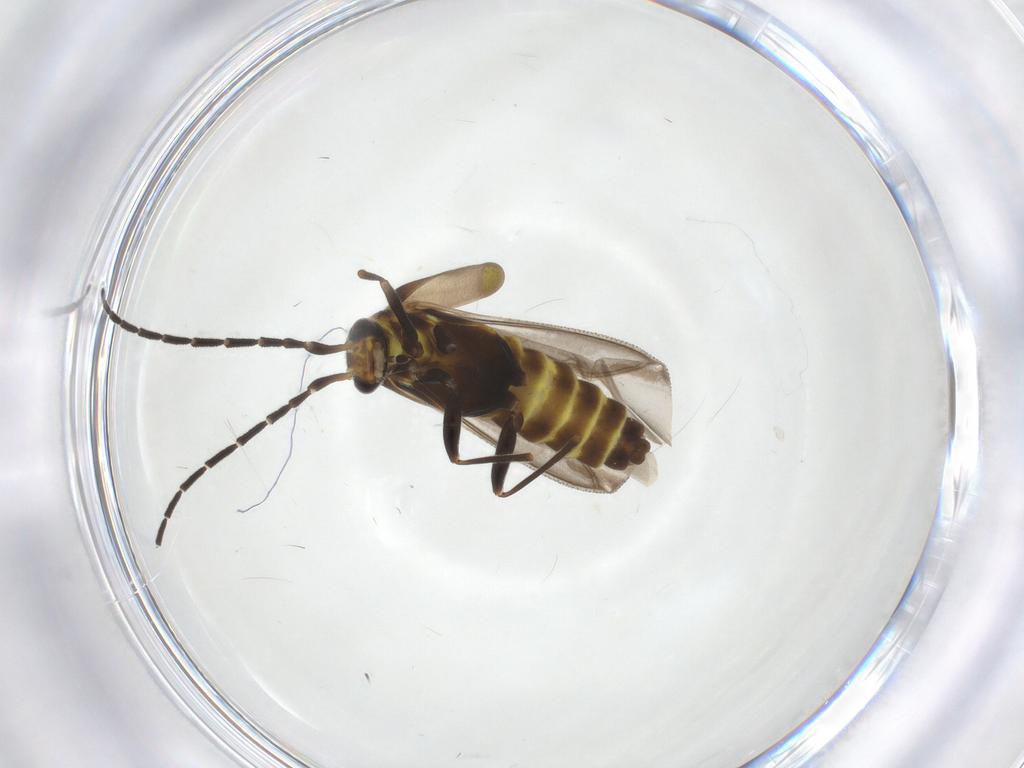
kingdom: Animalia
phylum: Arthropoda
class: Insecta
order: Coleoptera
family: Cantharidae
